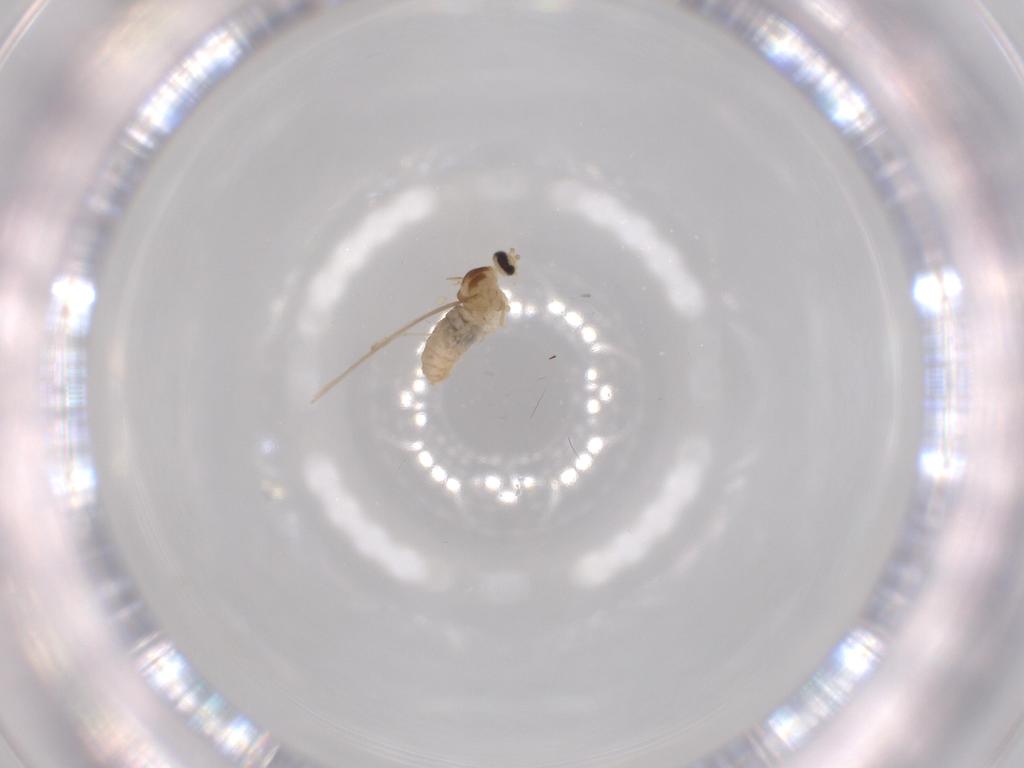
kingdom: Animalia
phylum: Arthropoda
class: Insecta
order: Diptera
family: Cecidomyiidae
